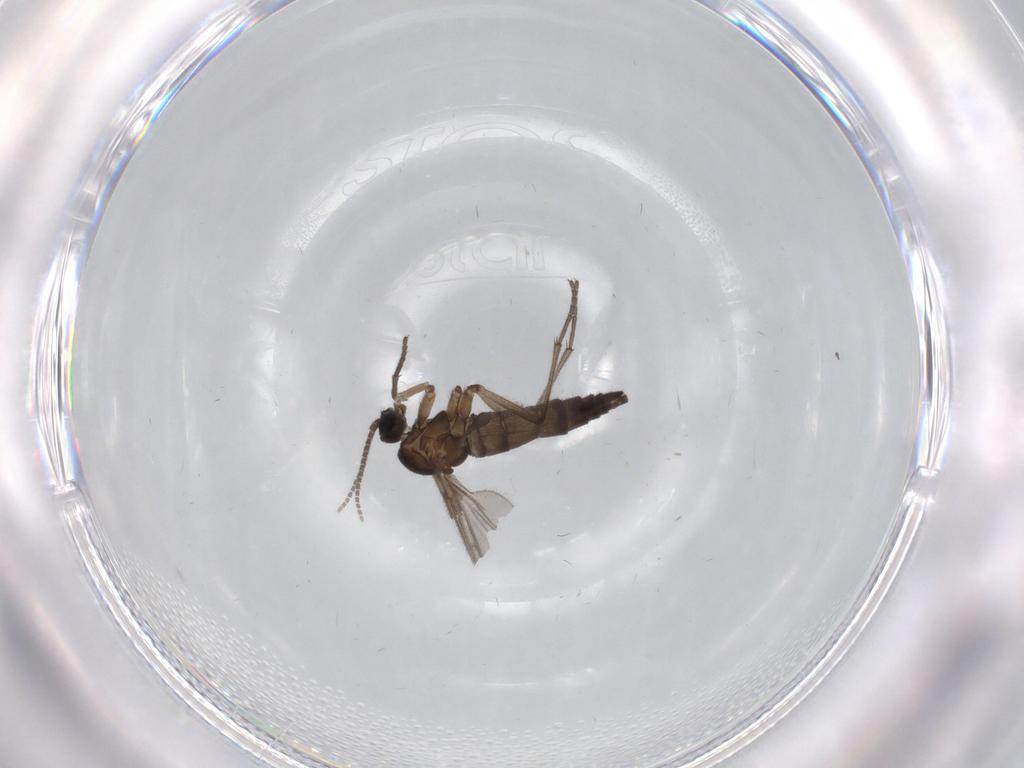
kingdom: Animalia
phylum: Arthropoda
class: Insecta
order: Diptera
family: Sciaridae
